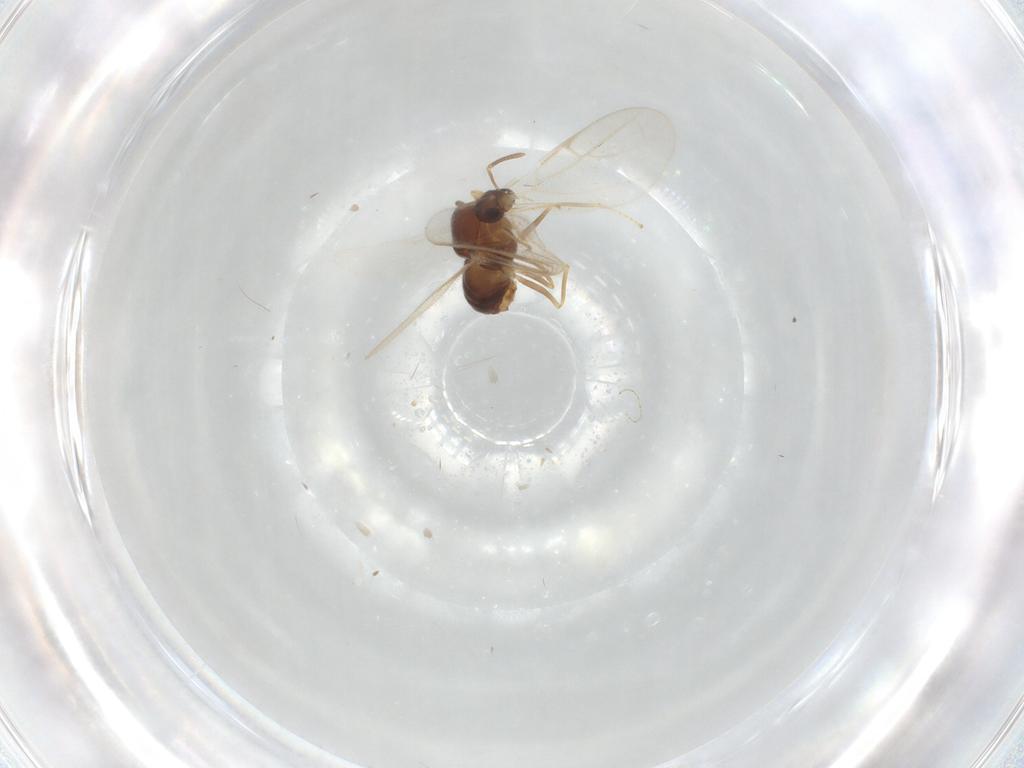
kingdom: Animalia
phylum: Arthropoda
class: Insecta
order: Hymenoptera
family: Formicidae
